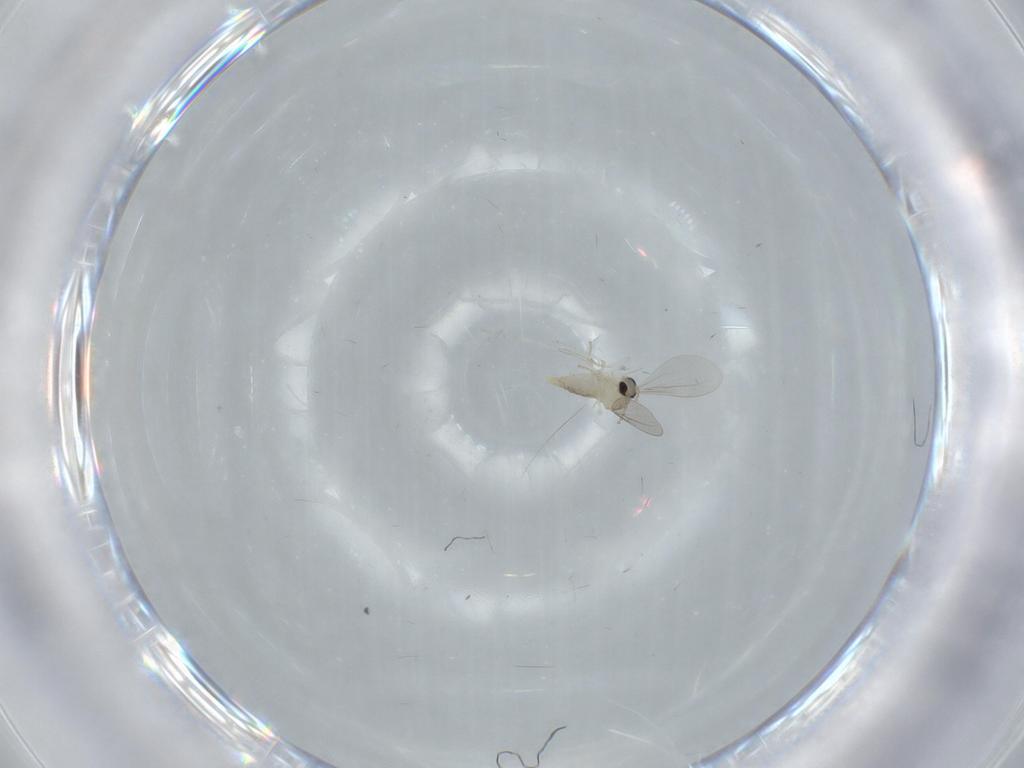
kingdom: Animalia
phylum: Arthropoda
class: Insecta
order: Diptera
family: Cecidomyiidae
